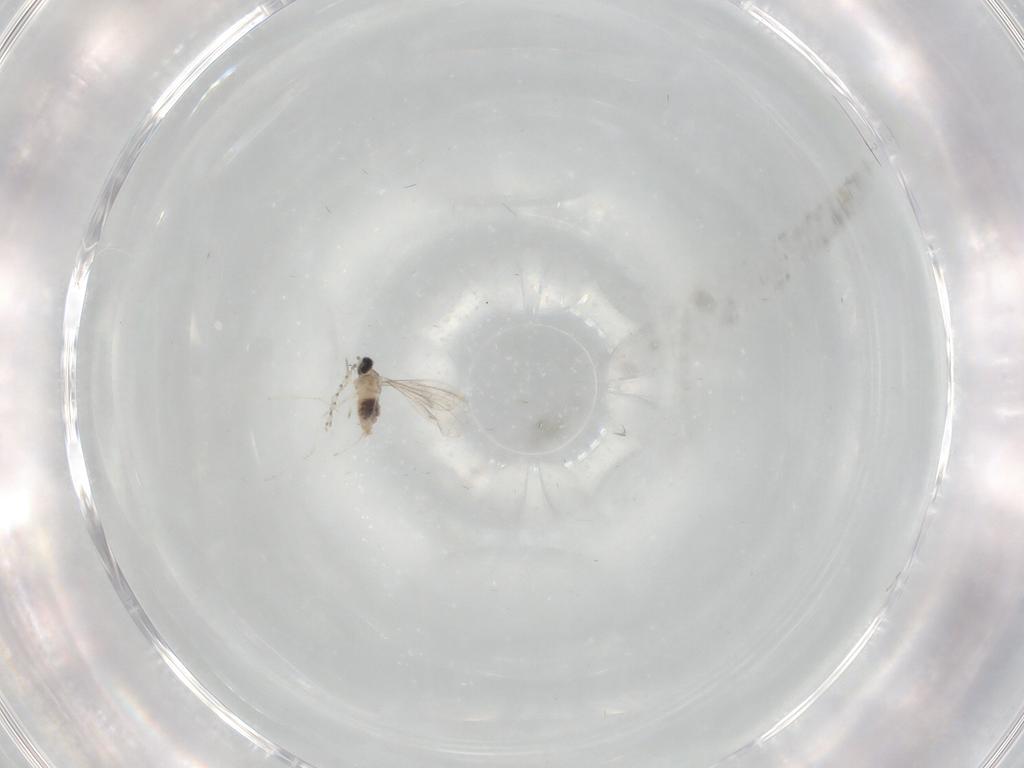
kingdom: Animalia
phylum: Arthropoda
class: Insecta
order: Diptera
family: Cecidomyiidae
